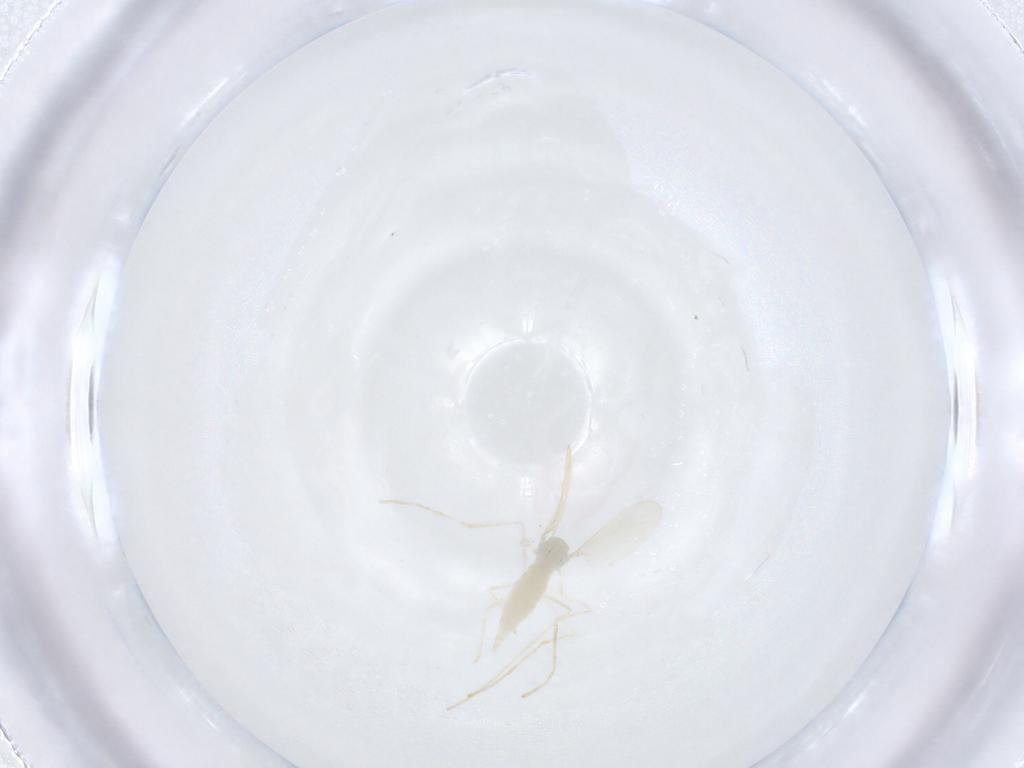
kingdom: Animalia
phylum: Arthropoda
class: Insecta
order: Diptera
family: Cecidomyiidae
